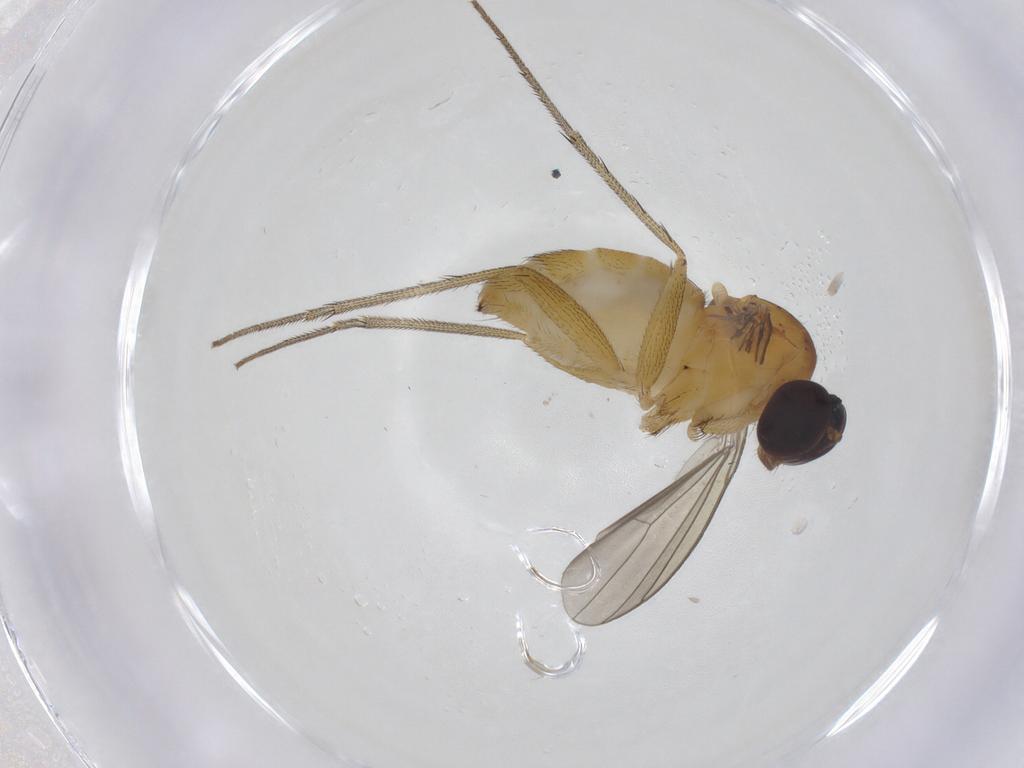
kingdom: Animalia
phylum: Arthropoda
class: Insecta
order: Diptera
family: Dolichopodidae
